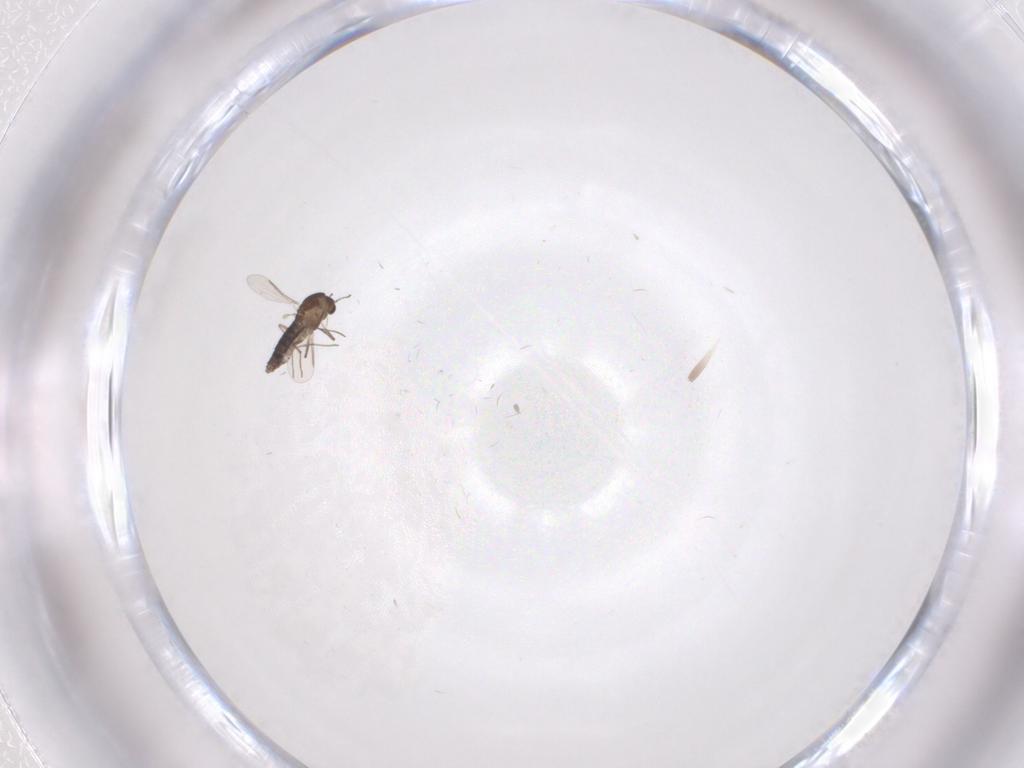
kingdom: Animalia
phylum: Arthropoda
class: Insecta
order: Diptera
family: Chironomidae
